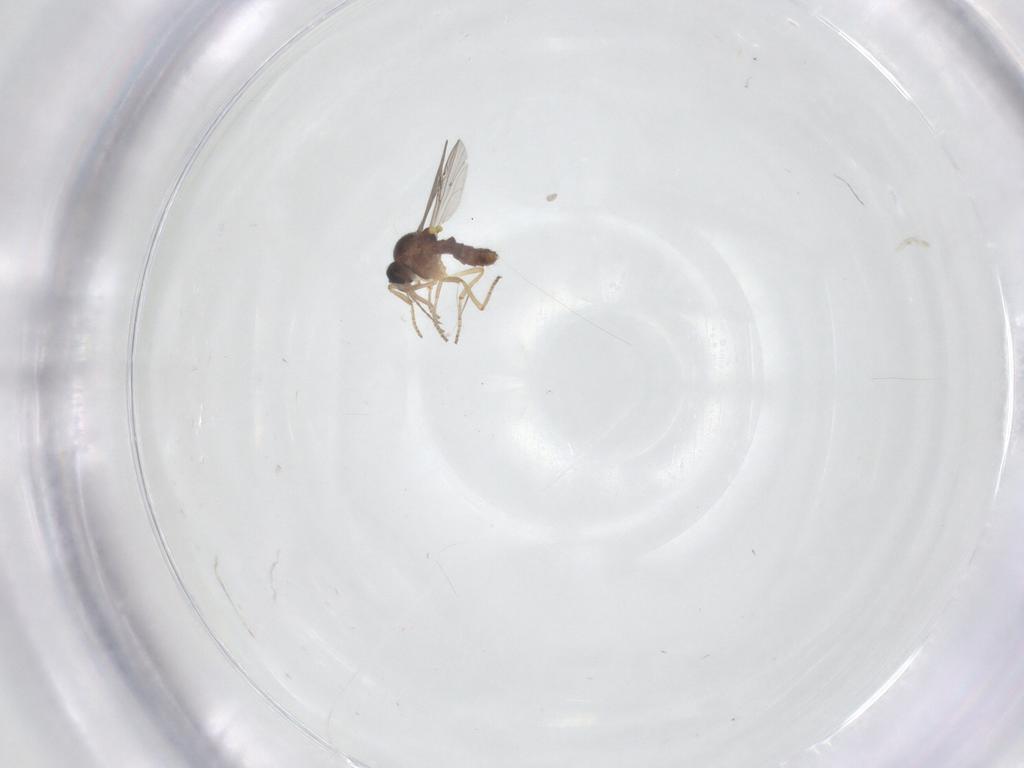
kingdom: Animalia
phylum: Arthropoda
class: Insecta
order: Diptera
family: Ceratopogonidae
